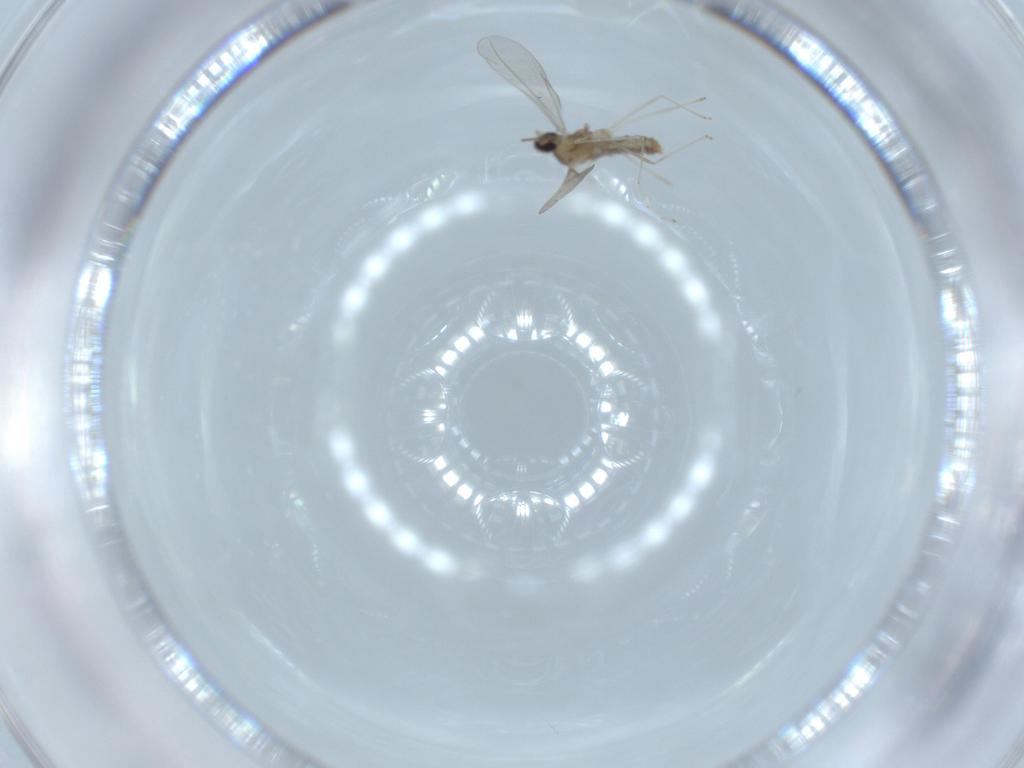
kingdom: Animalia
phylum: Arthropoda
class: Insecta
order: Diptera
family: Cecidomyiidae
